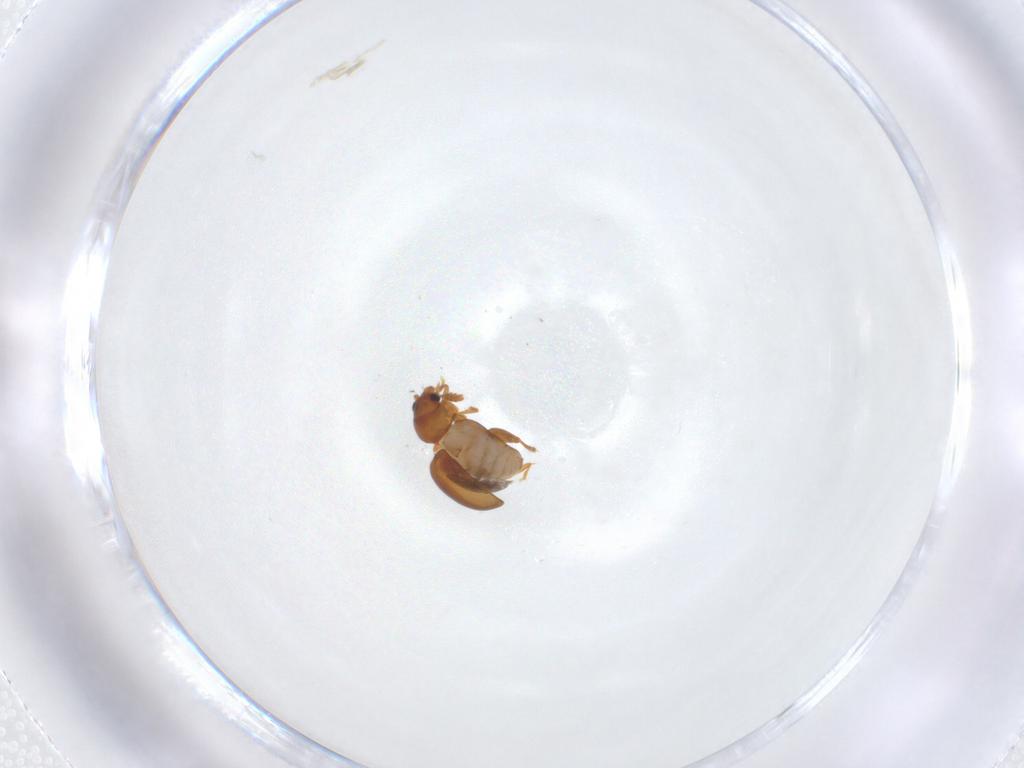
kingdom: Animalia
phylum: Arthropoda
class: Insecta
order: Coleoptera
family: Chrysomelidae
